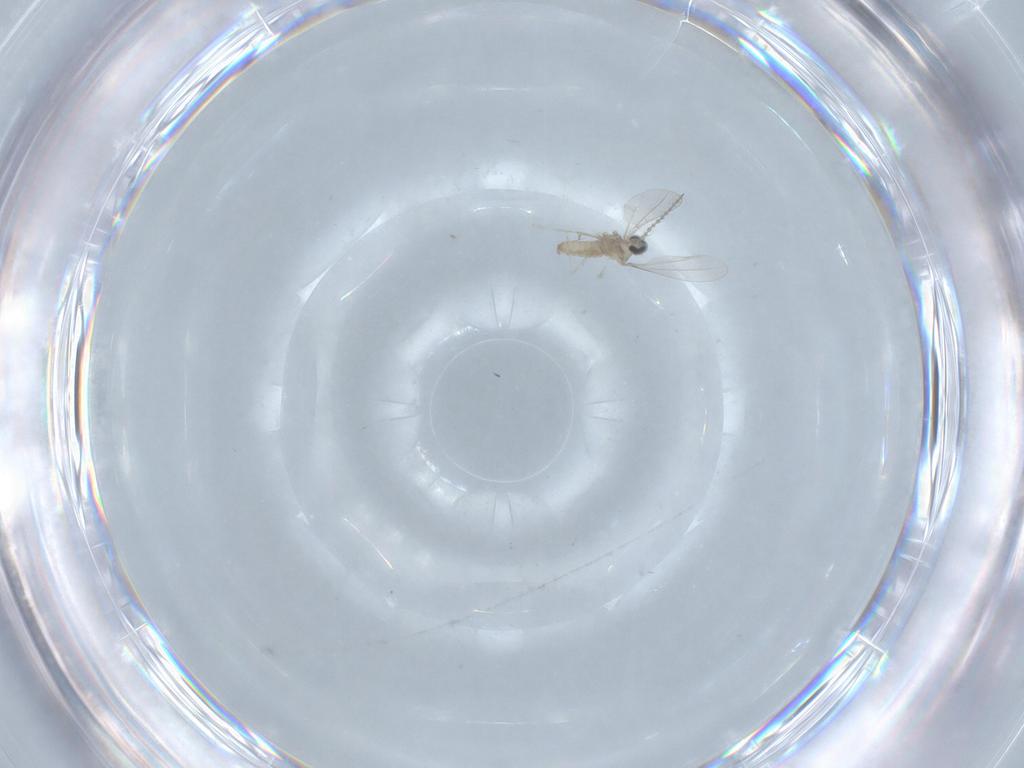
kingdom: Animalia
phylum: Arthropoda
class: Insecta
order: Diptera
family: Cecidomyiidae
